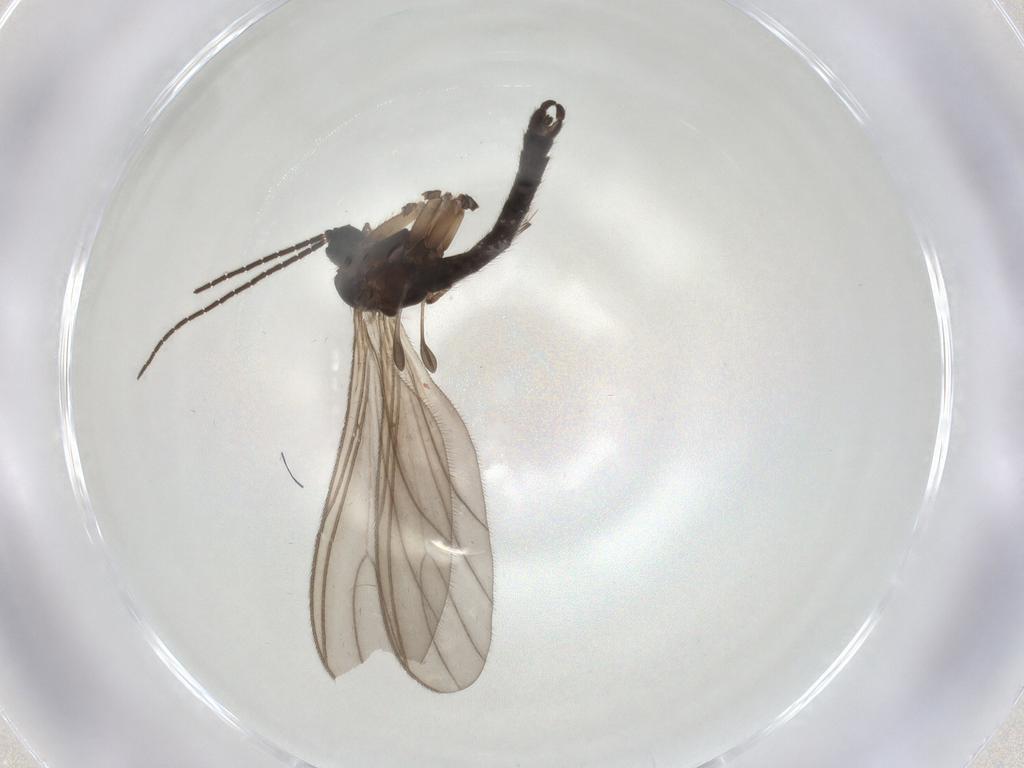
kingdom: Animalia
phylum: Arthropoda
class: Insecta
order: Diptera
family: Sciaridae
